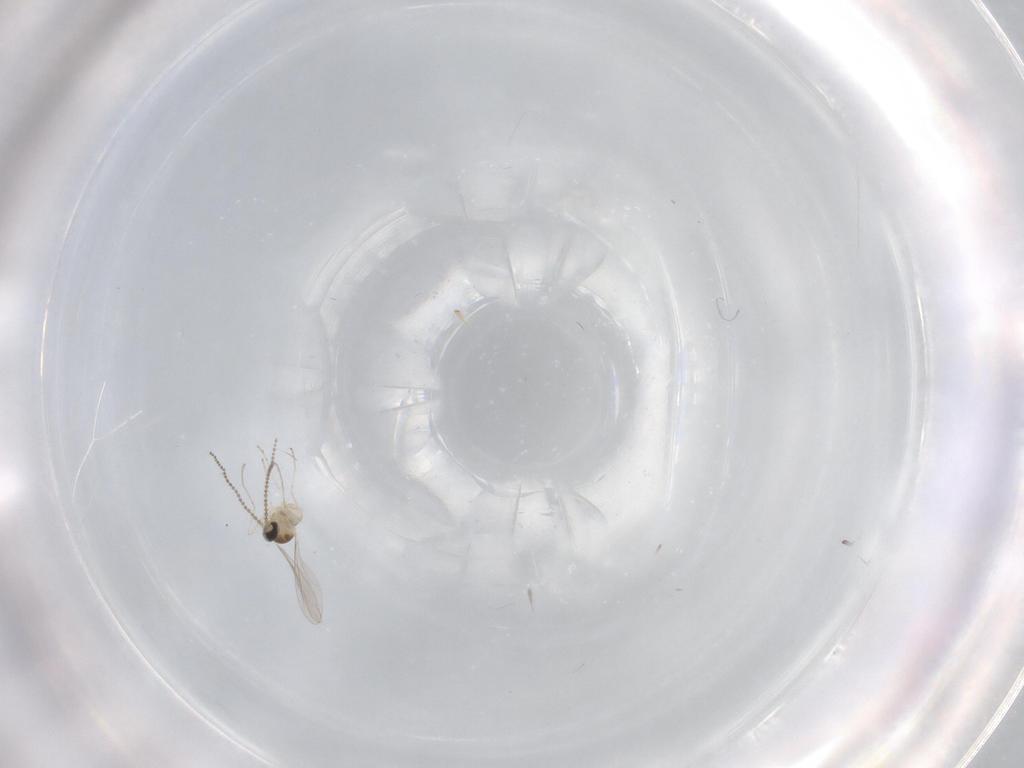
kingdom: Animalia
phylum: Arthropoda
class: Insecta
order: Diptera
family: Cecidomyiidae
